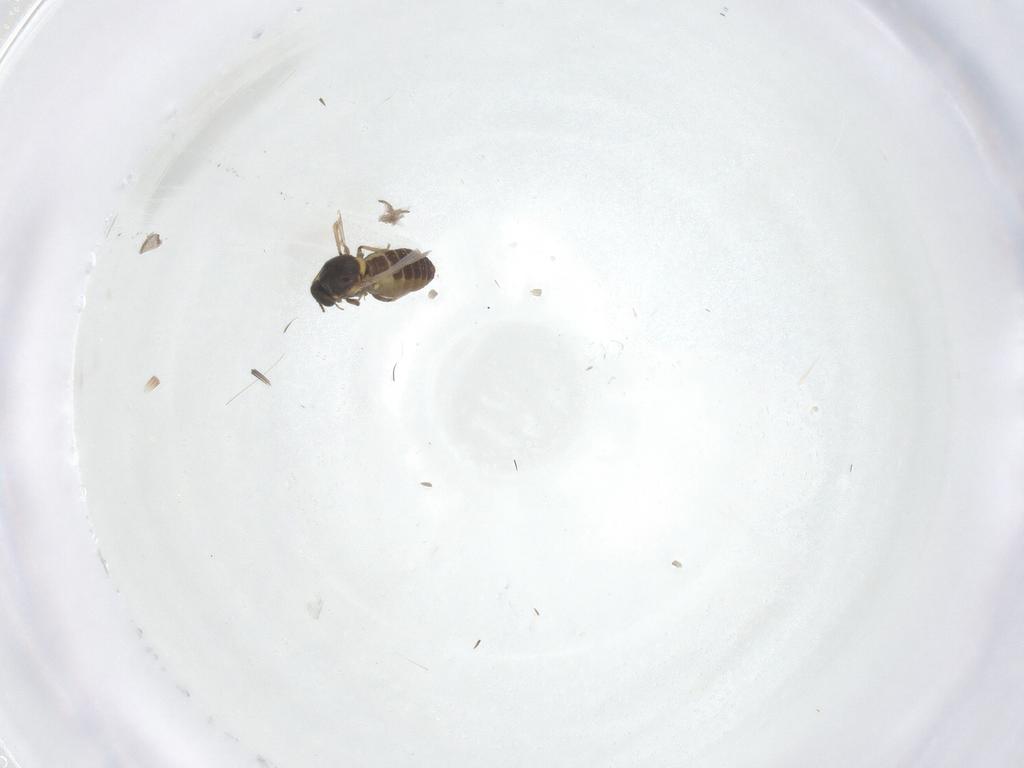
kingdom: Animalia
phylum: Arthropoda
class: Insecta
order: Diptera
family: Ceratopogonidae
